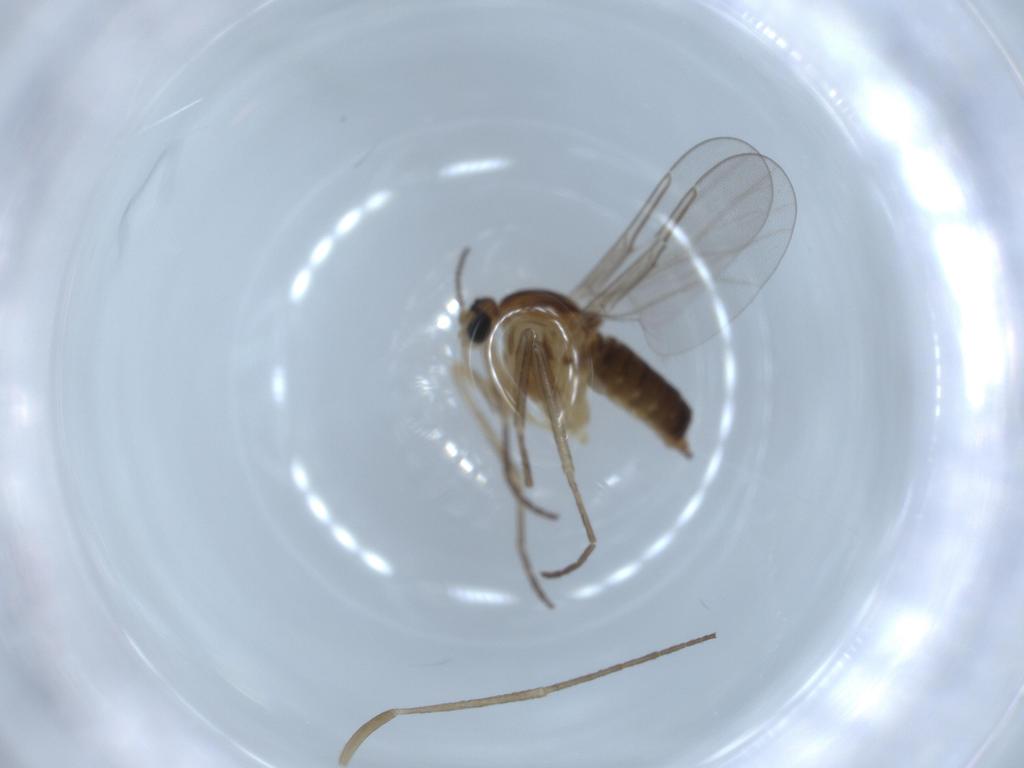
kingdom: Animalia
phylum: Arthropoda
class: Insecta
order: Diptera
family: Cecidomyiidae
